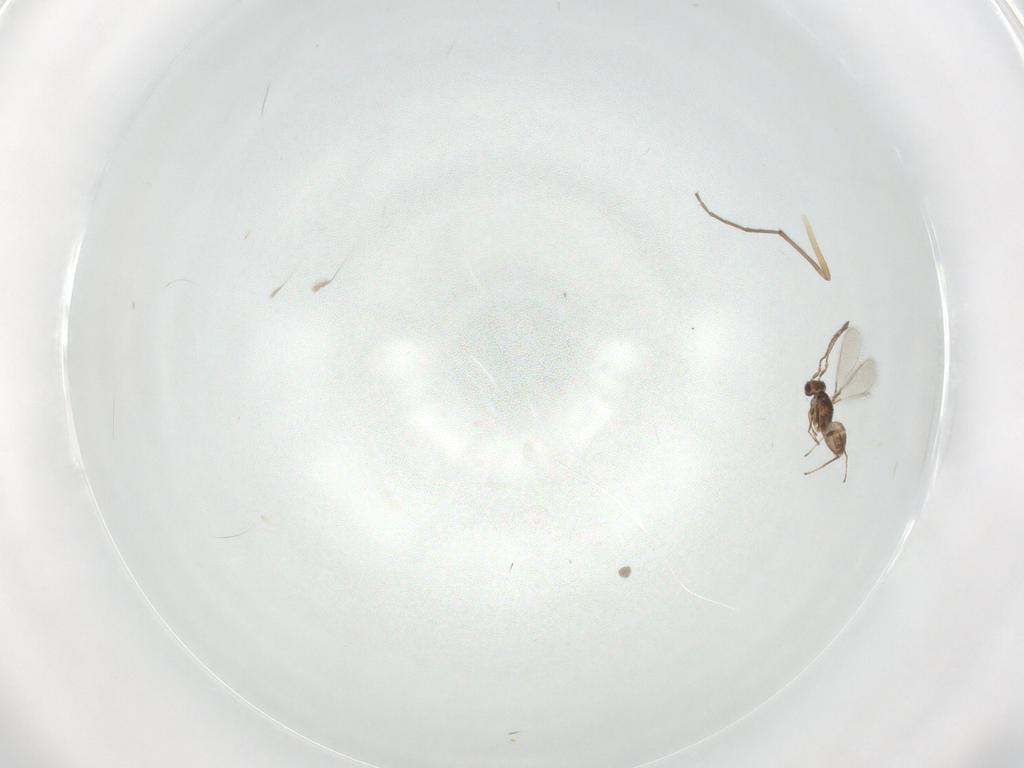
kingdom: Animalia
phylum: Arthropoda
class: Insecta
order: Hymenoptera
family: Mymaridae
